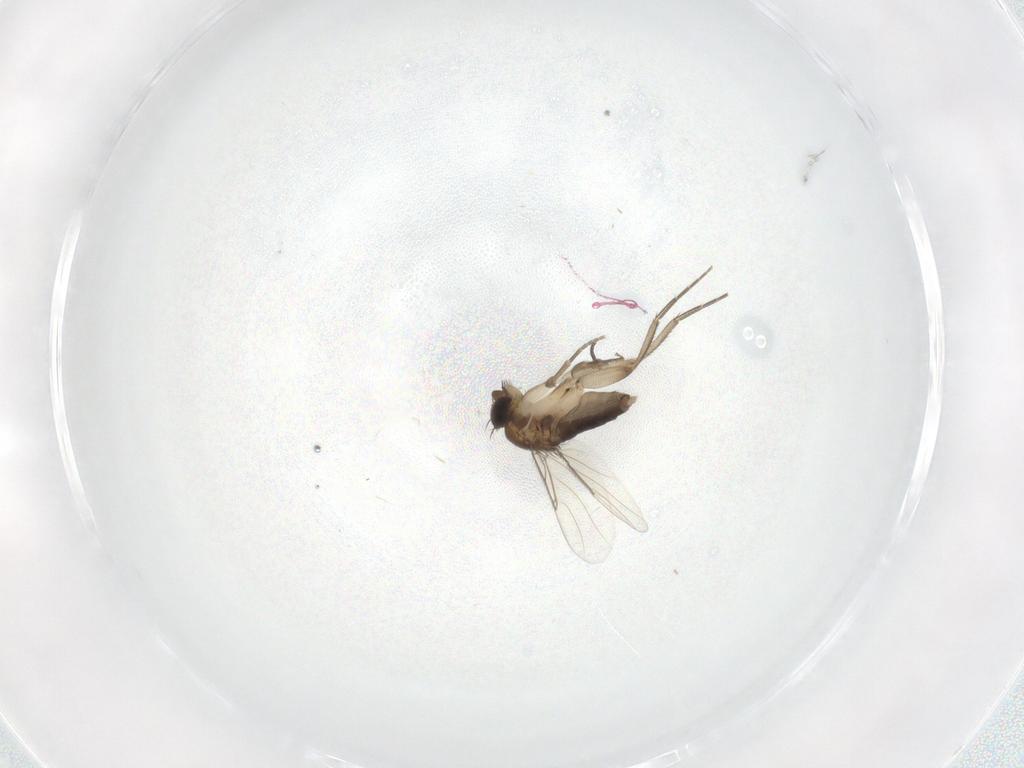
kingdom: Animalia
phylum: Arthropoda
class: Insecta
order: Diptera
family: Phoridae
